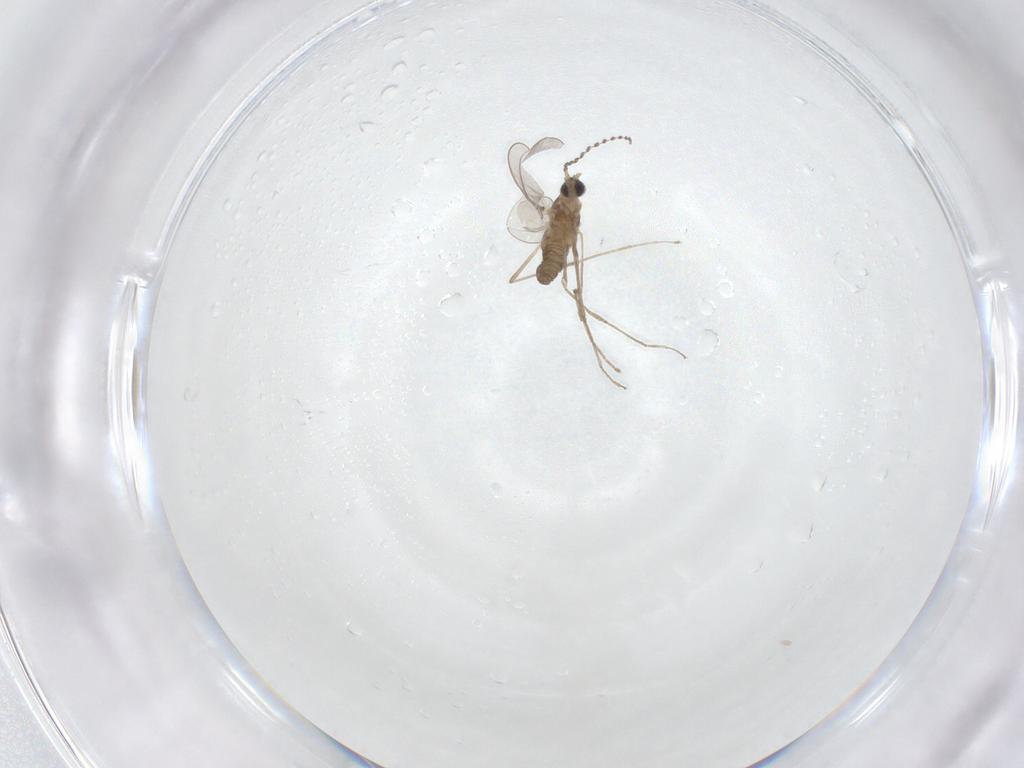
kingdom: Animalia
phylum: Arthropoda
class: Insecta
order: Diptera
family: Cecidomyiidae
